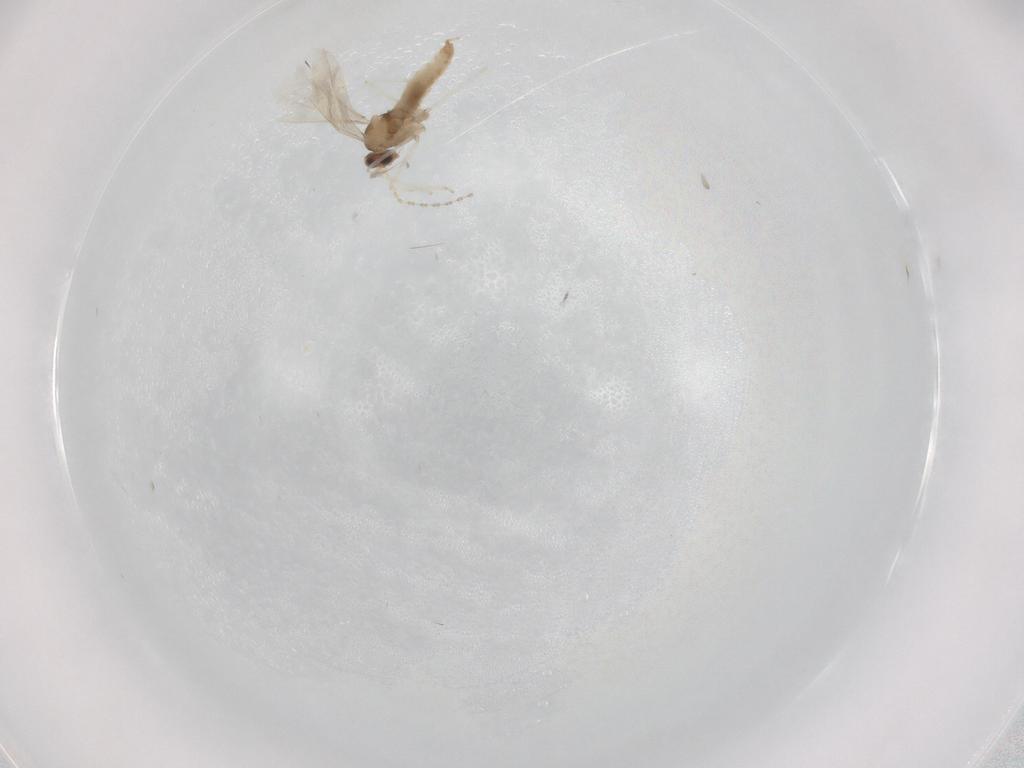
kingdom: Animalia
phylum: Arthropoda
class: Insecta
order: Diptera
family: Cecidomyiidae
